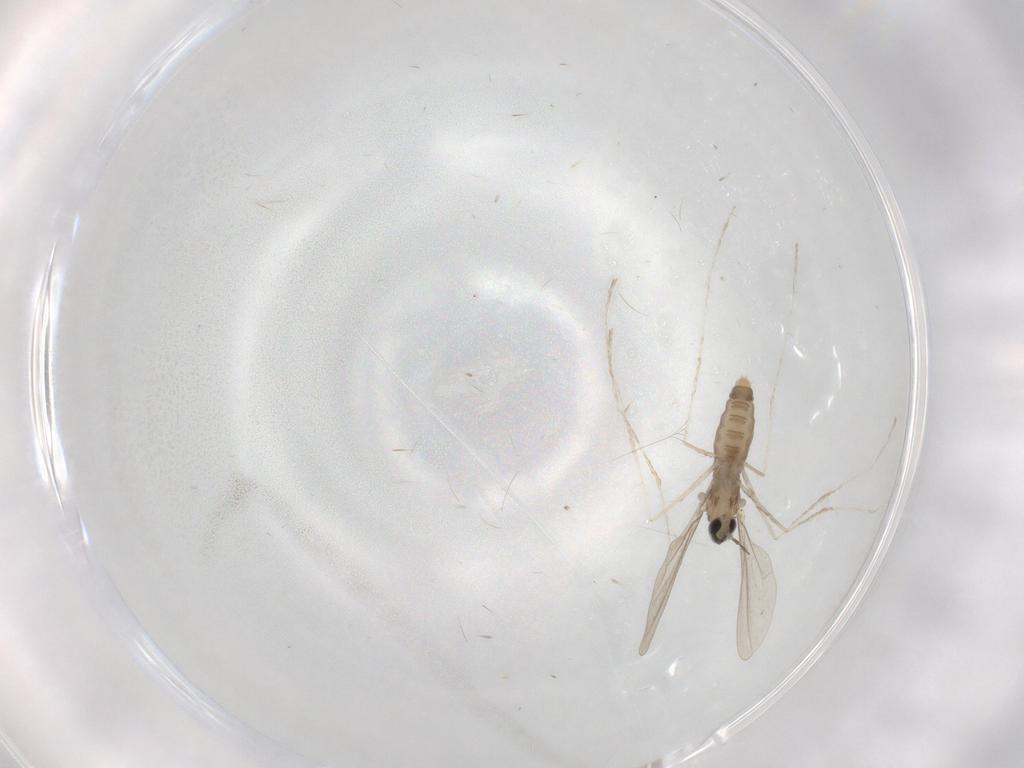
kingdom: Animalia
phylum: Arthropoda
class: Insecta
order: Diptera
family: Cecidomyiidae
